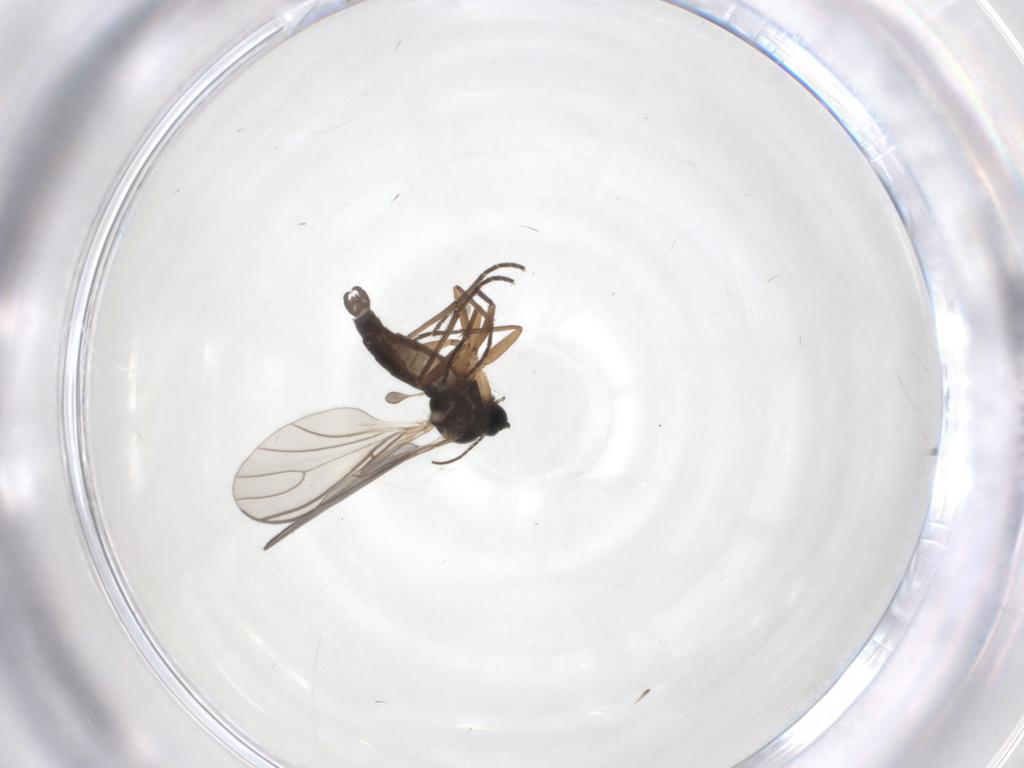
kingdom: Animalia
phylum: Arthropoda
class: Insecta
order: Diptera
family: Sciaridae
